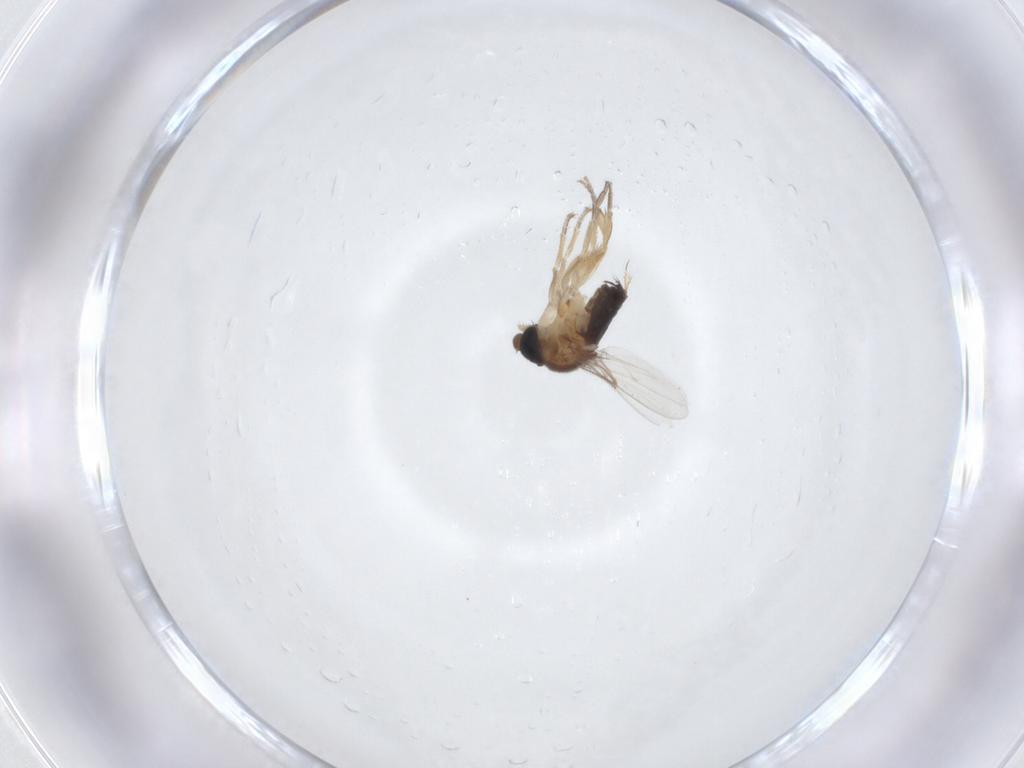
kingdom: Animalia
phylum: Arthropoda
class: Insecta
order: Diptera
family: Phoridae
